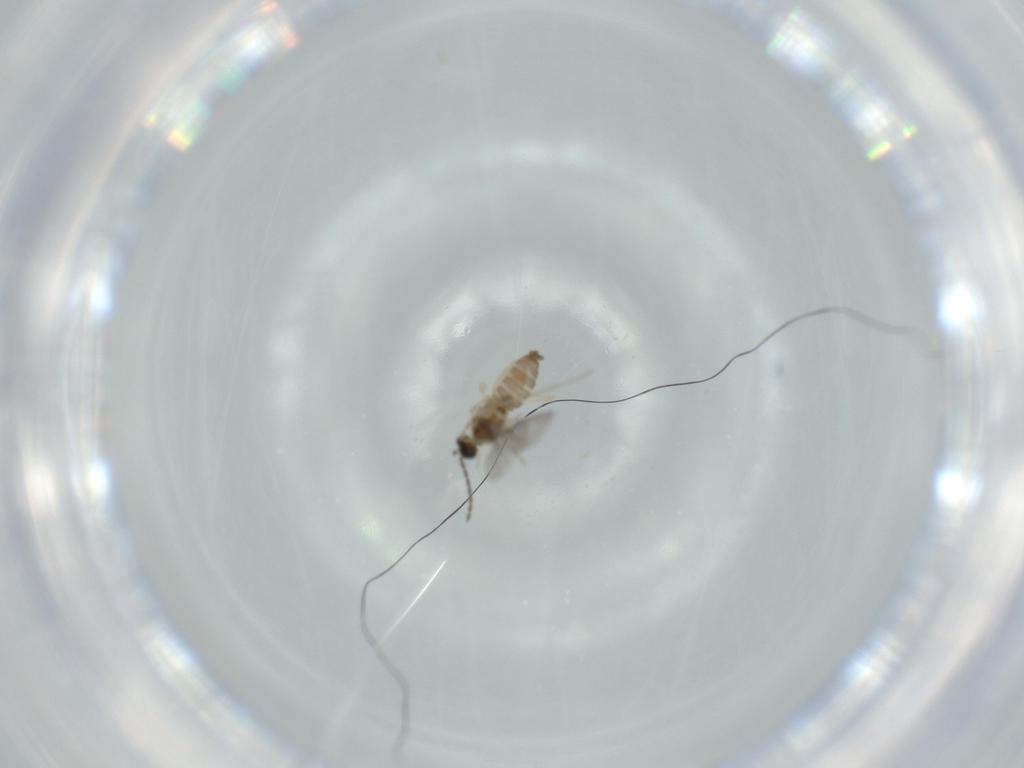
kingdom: Animalia
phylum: Arthropoda
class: Insecta
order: Diptera
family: Cecidomyiidae
